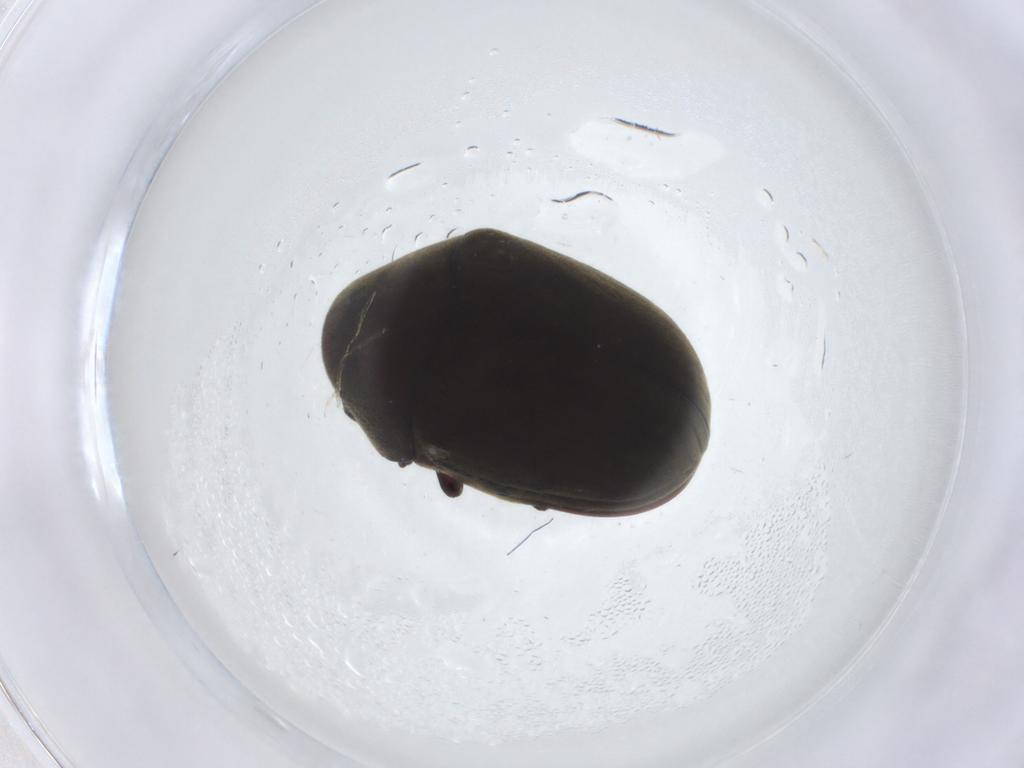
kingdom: Animalia
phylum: Arthropoda
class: Insecta
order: Coleoptera
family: Ptinidae
